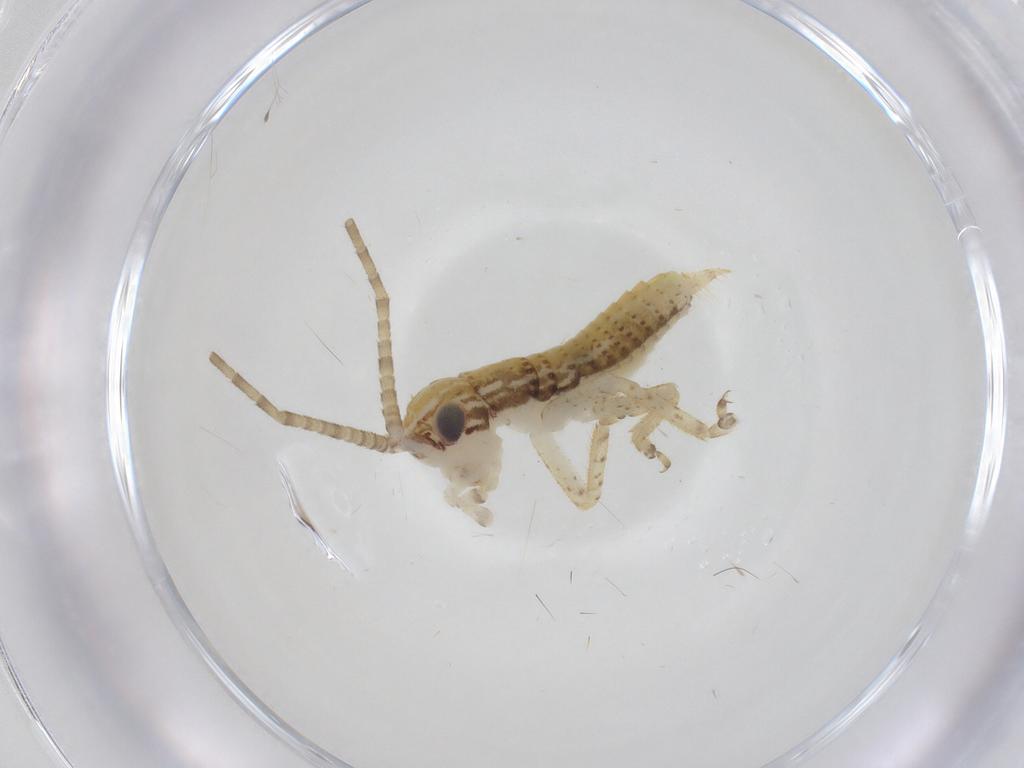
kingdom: Animalia
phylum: Arthropoda
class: Insecta
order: Orthoptera
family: Gryllidae
